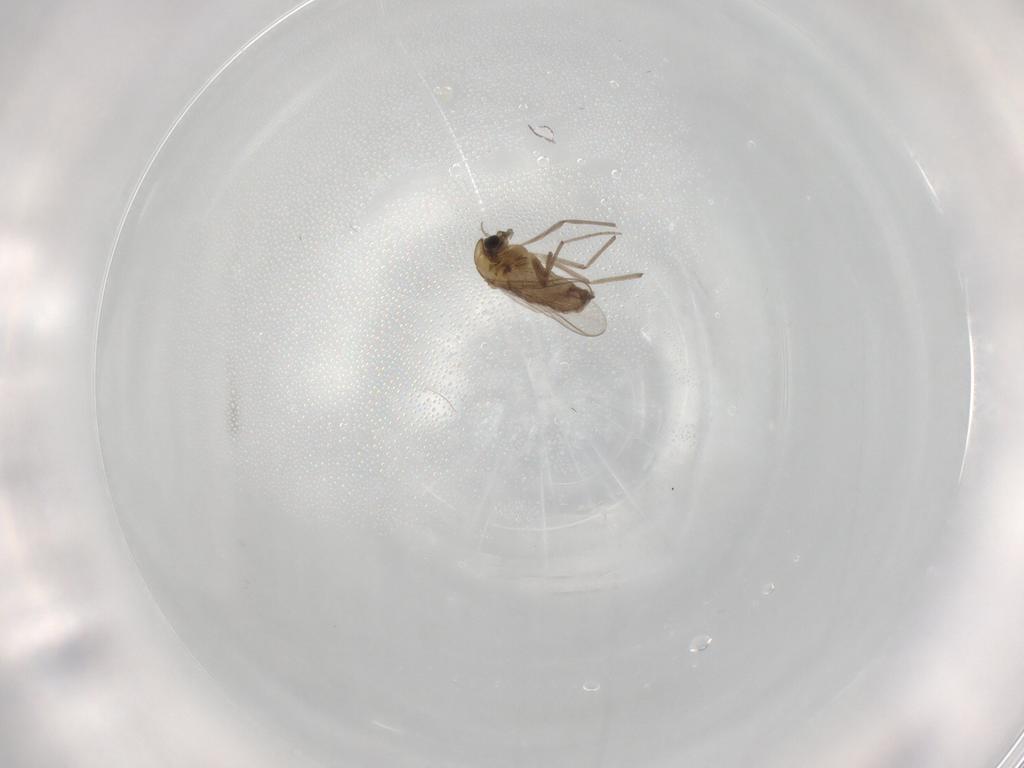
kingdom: Animalia
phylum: Arthropoda
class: Insecta
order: Diptera
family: Chironomidae
